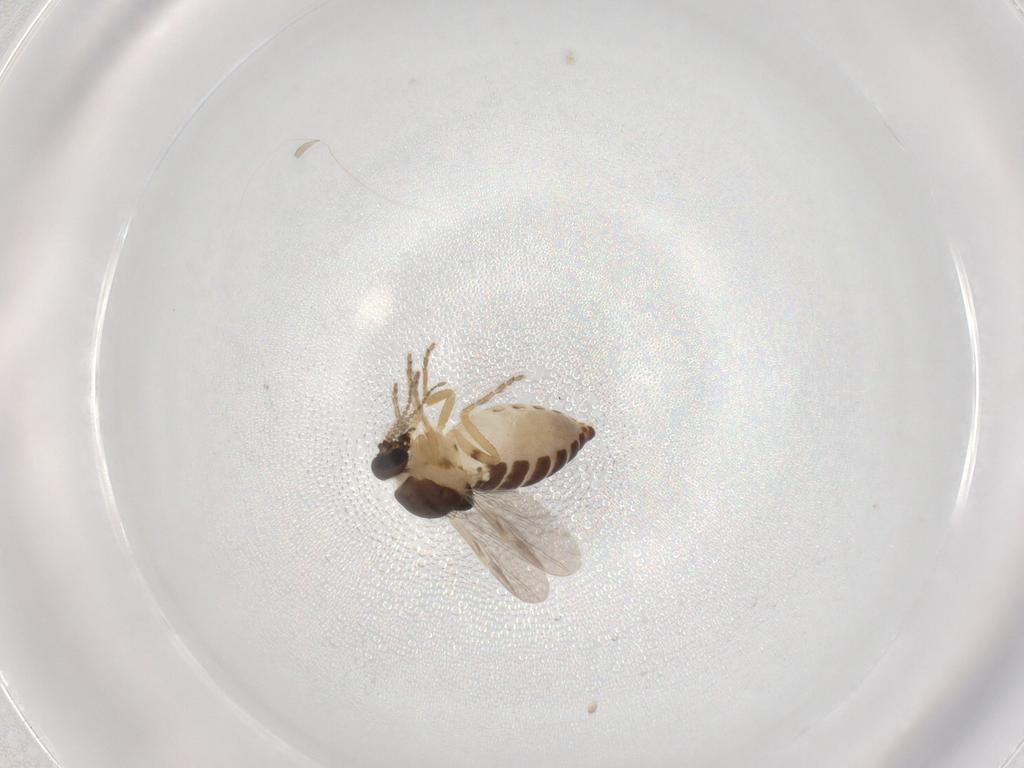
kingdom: Animalia
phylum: Arthropoda
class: Insecta
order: Diptera
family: Ceratopogonidae
